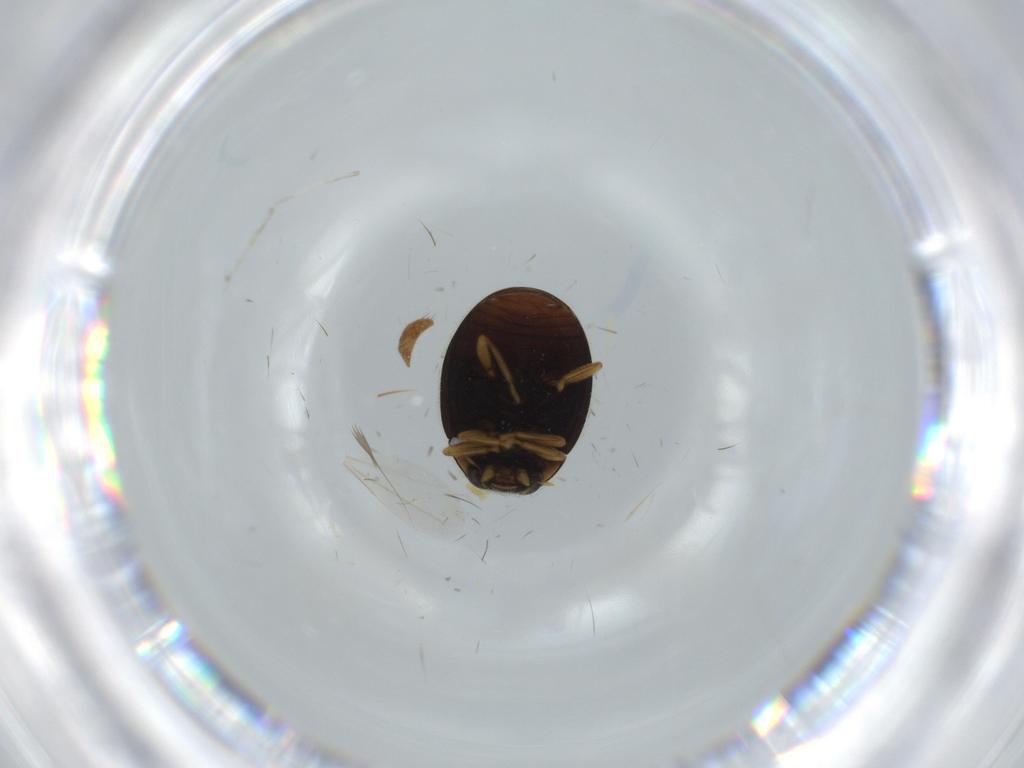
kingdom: Animalia
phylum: Arthropoda
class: Insecta
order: Coleoptera
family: Coccinellidae
